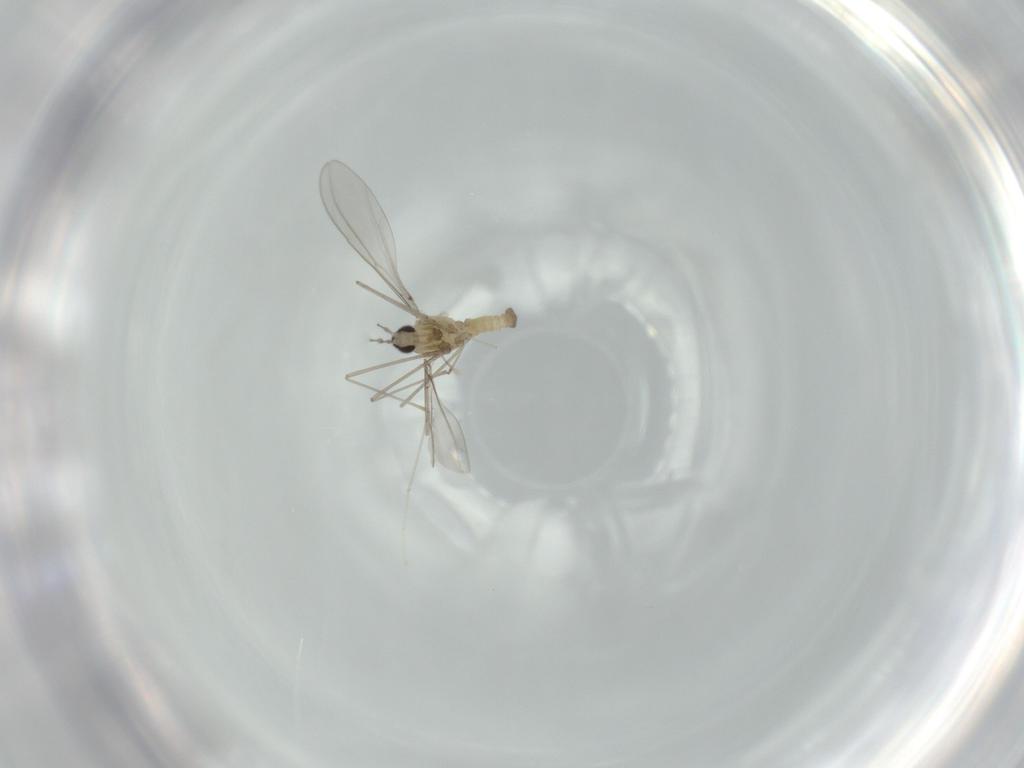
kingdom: Animalia
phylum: Arthropoda
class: Insecta
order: Diptera
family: Cecidomyiidae
